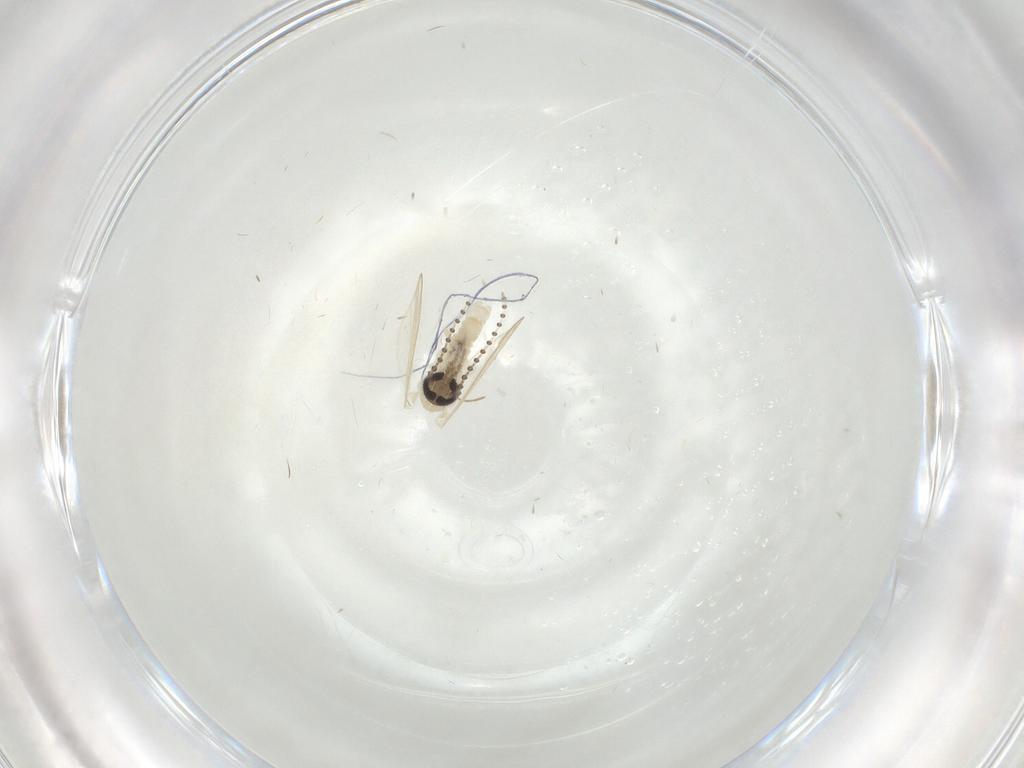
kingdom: Animalia
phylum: Arthropoda
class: Insecta
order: Diptera
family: Psychodidae
